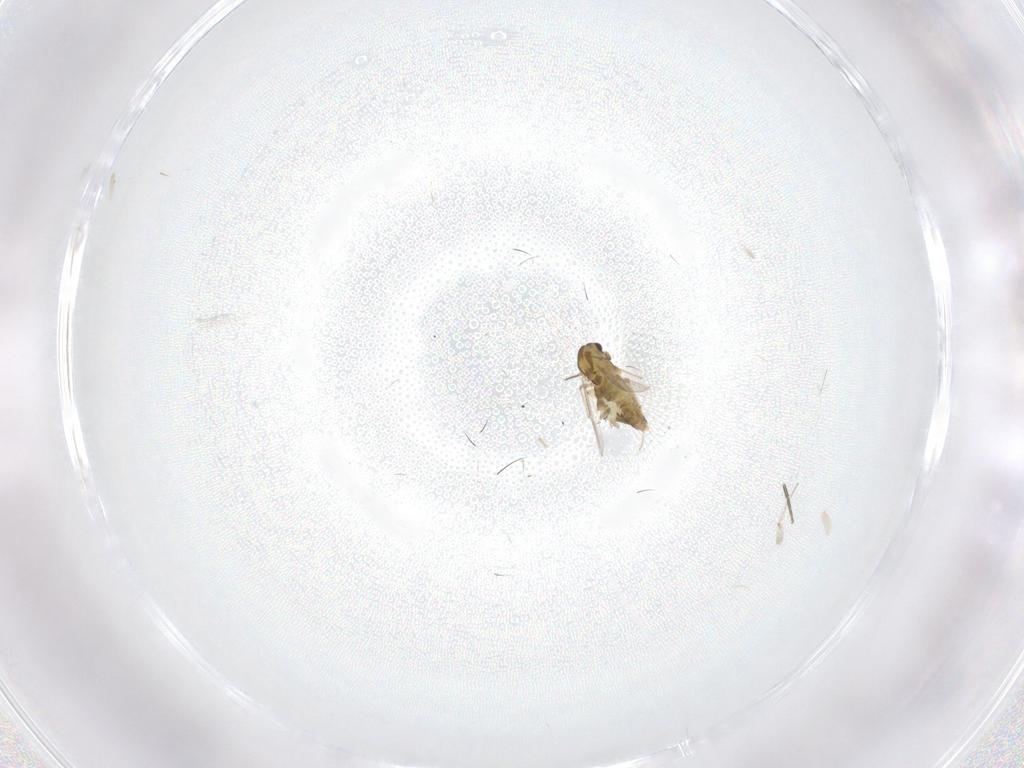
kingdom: Animalia
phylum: Arthropoda
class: Insecta
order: Diptera
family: Chironomidae
